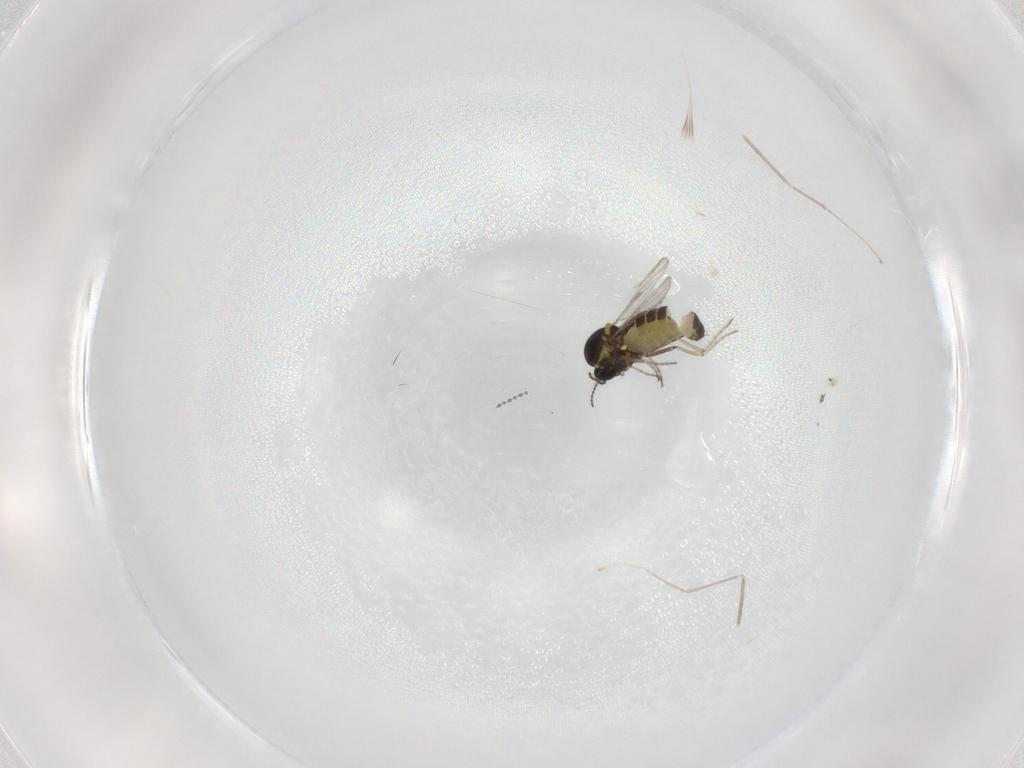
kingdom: Animalia
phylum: Arthropoda
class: Insecta
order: Diptera
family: Ceratopogonidae
